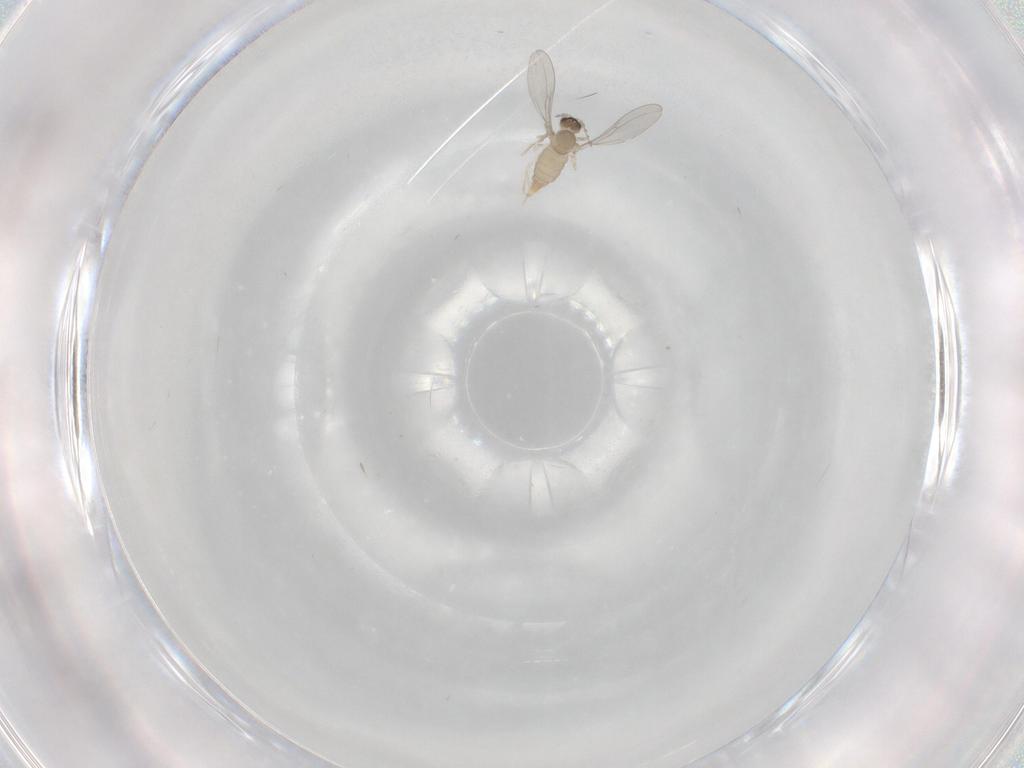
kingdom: Animalia
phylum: Arthropoda
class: Insecta
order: Diptera
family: Cecidomyiidae
